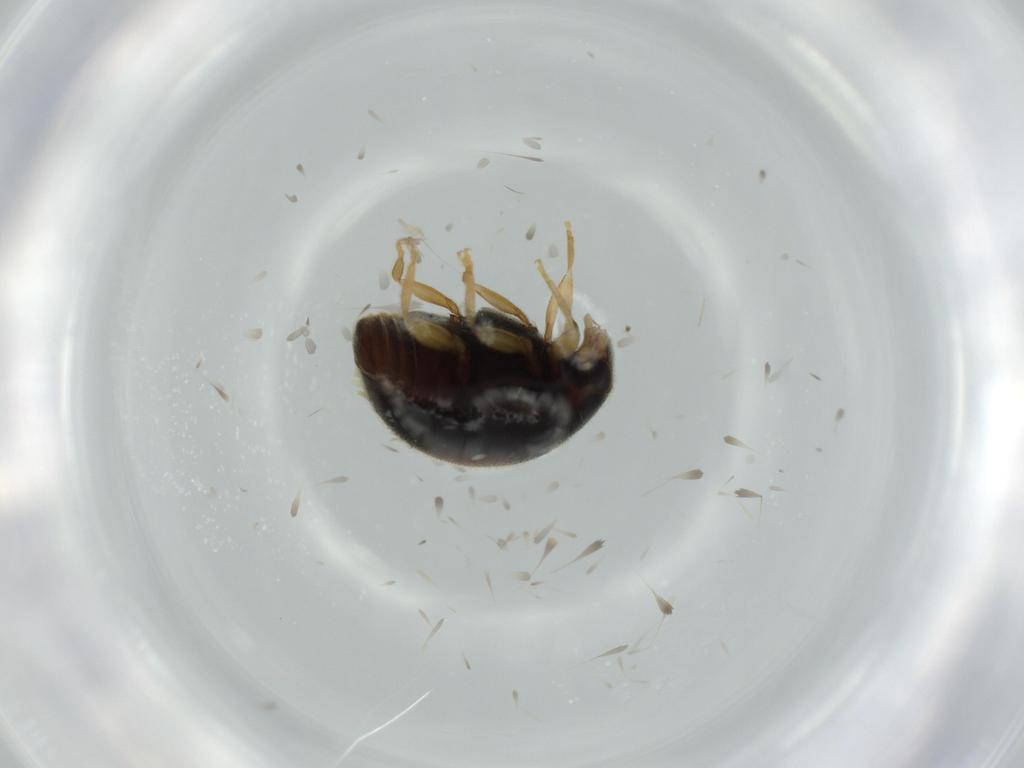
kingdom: Animalia
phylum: Arthropoda
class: Insecta
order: Coleoptera
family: Coccinellidae
